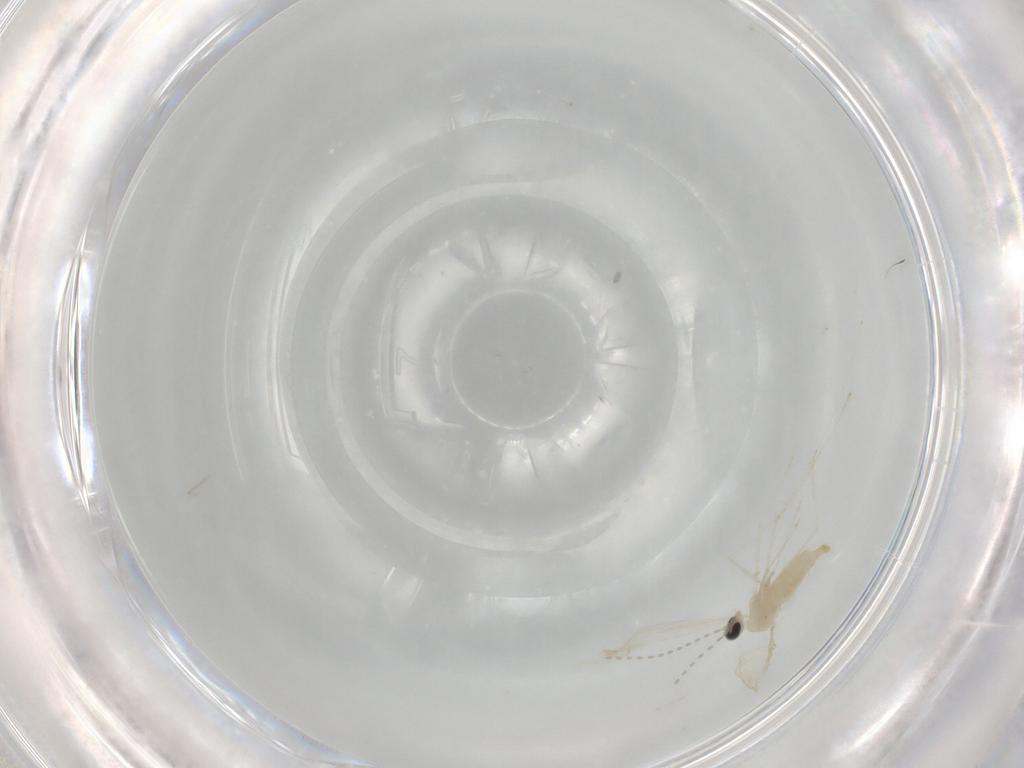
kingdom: Animalia
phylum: Arthropoda
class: Insecta
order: Diptera
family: Cecidomyiidae
